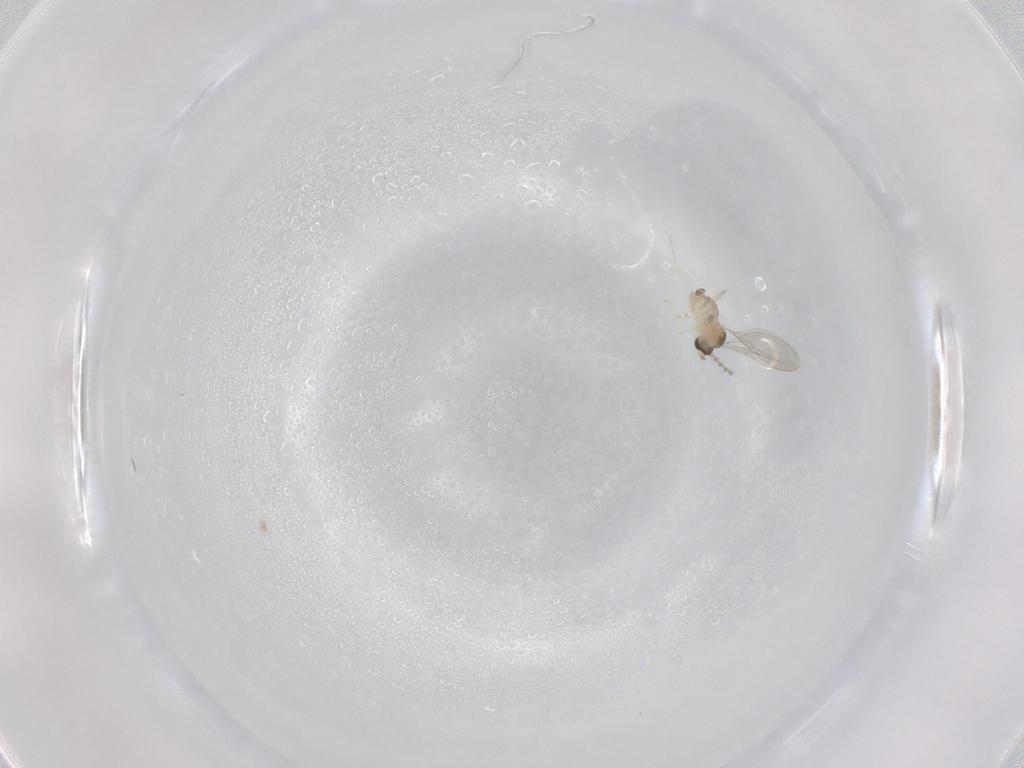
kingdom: Animalia
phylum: Arthropoda
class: Insecta
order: Diptera
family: Cecidomyiidae
